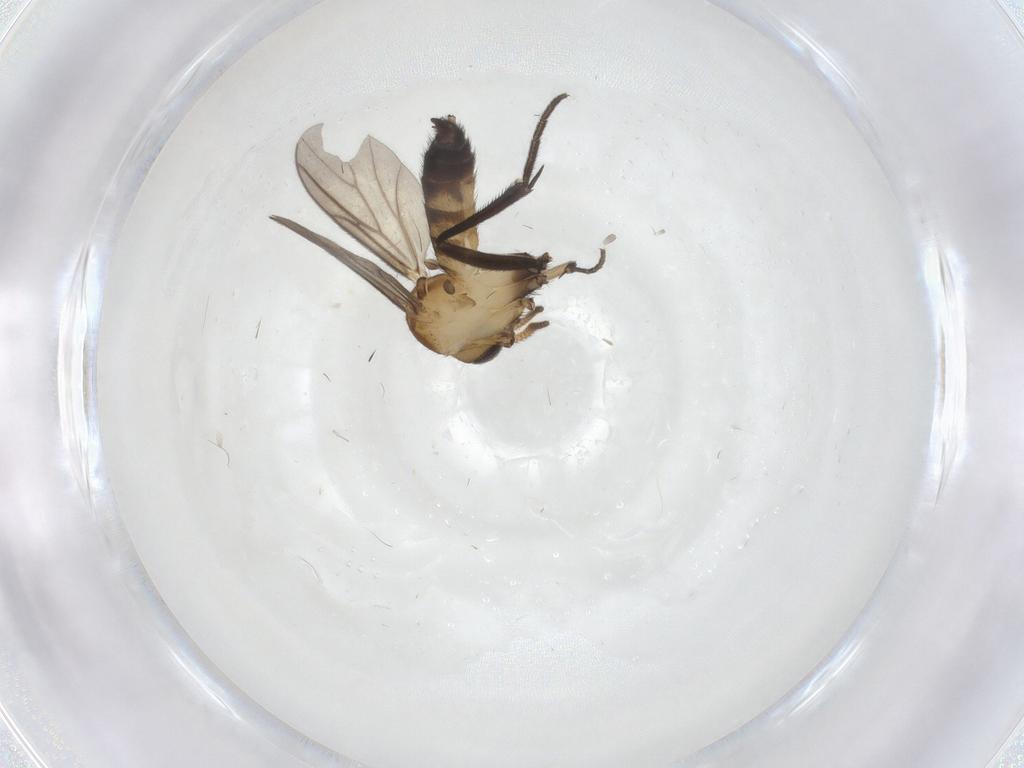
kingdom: Animalia
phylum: Arthropoda
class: Insecta
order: Diptera
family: Limoniidae
